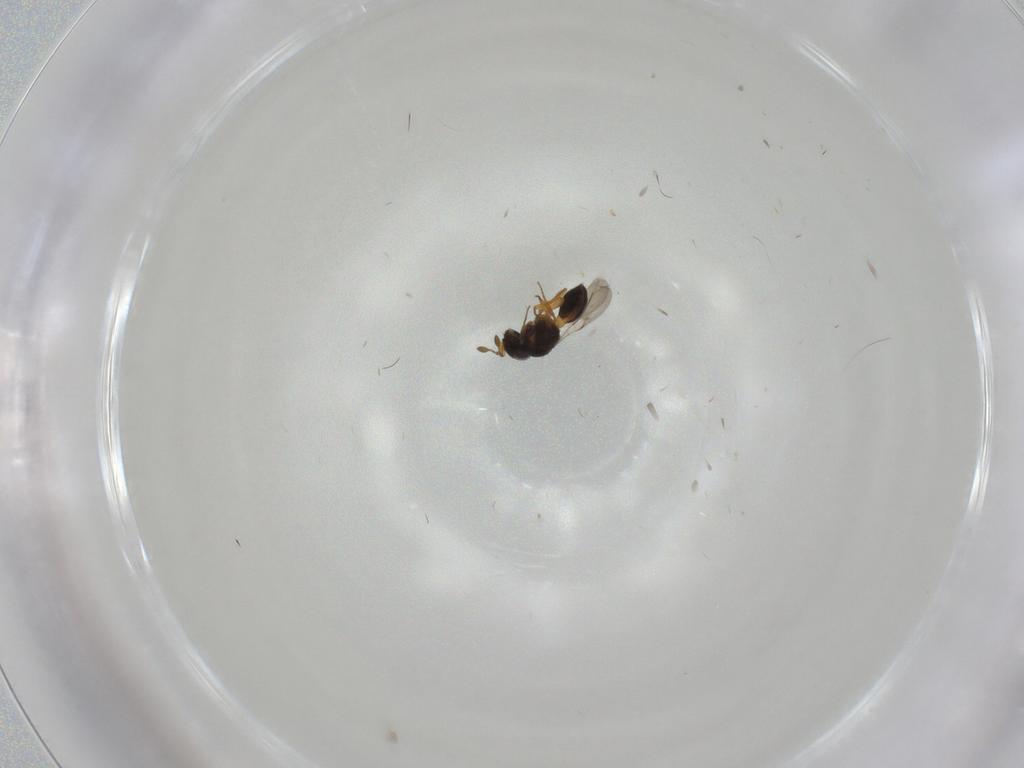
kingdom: Animalia
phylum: Arthropoda
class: Insecta
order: Hymenoptera
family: Scelionidae
